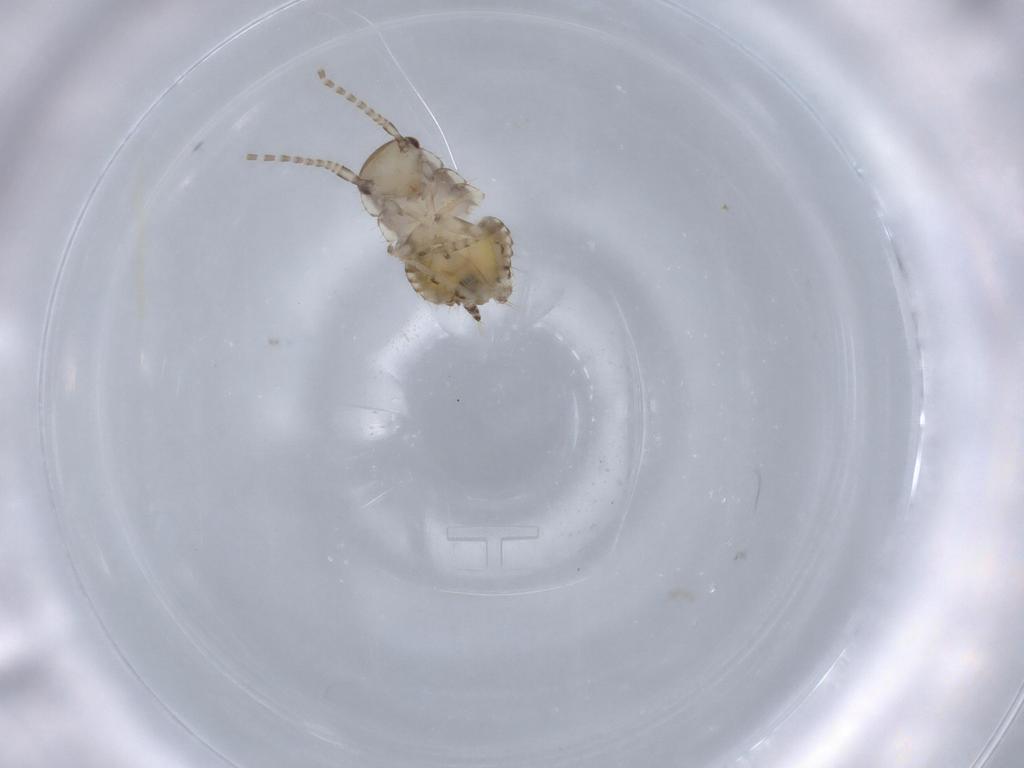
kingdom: Animalia
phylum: Arthropoda
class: Insecta
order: Blattodea
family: Ectobiidae
